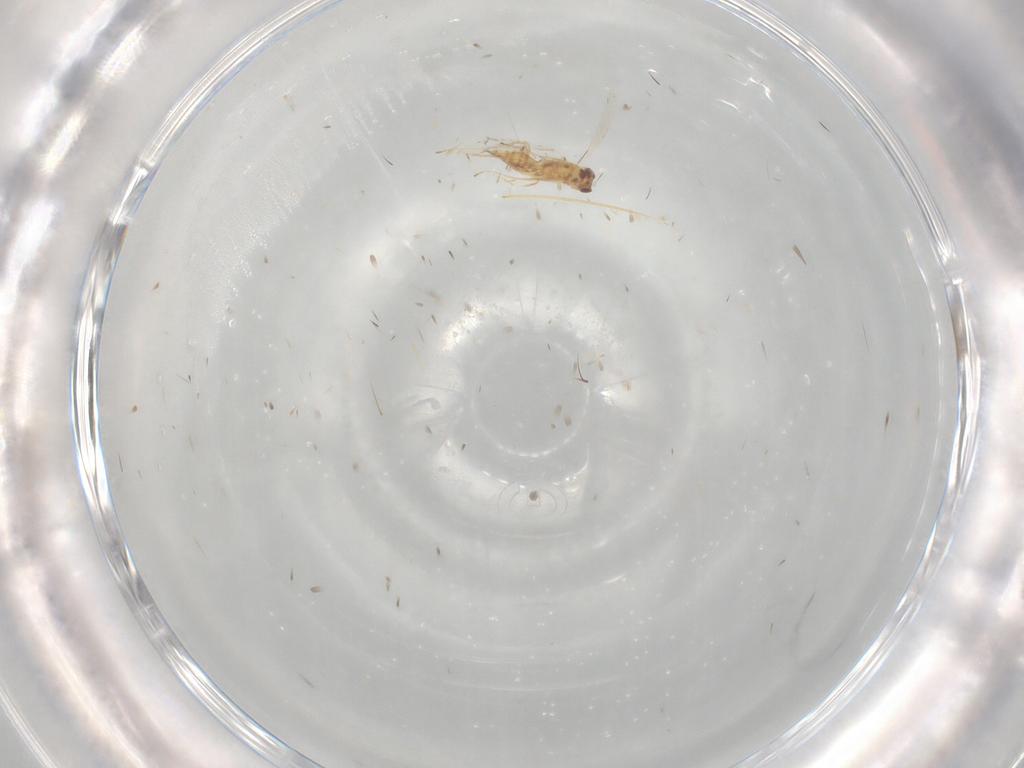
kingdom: Animalia
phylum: Arthropoda
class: Insecta
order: Hymenoptera
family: Mymaridae
